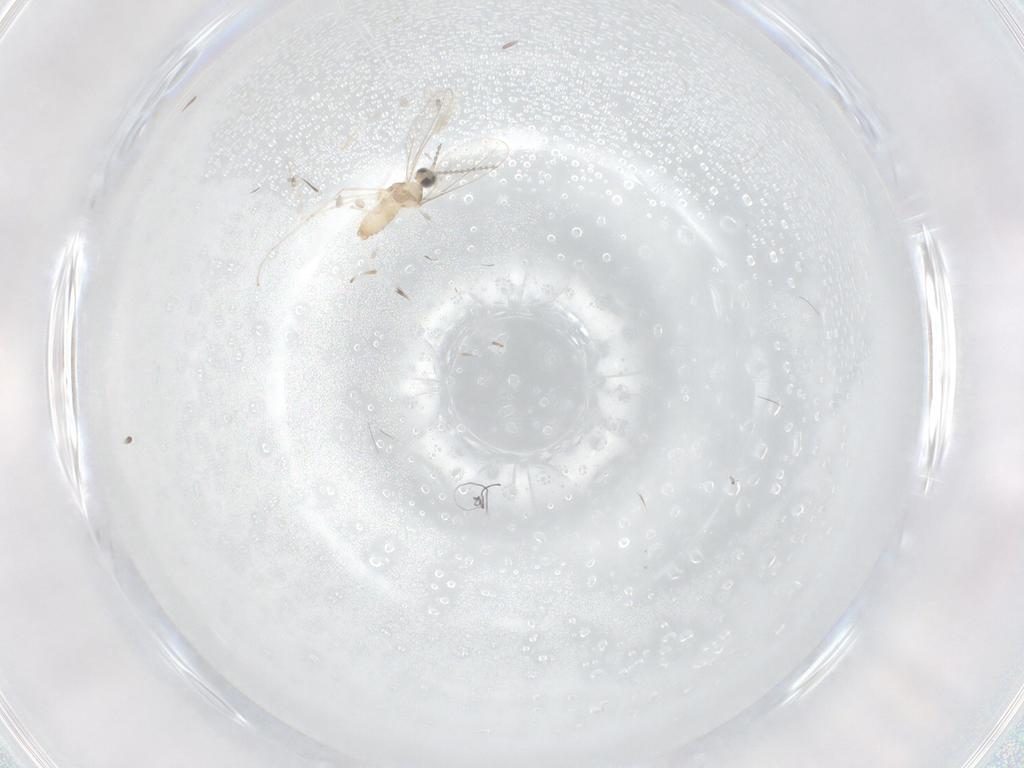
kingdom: Animalia
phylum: Arthropoda
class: Insecta
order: Diptera
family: Cecidomyiidae
